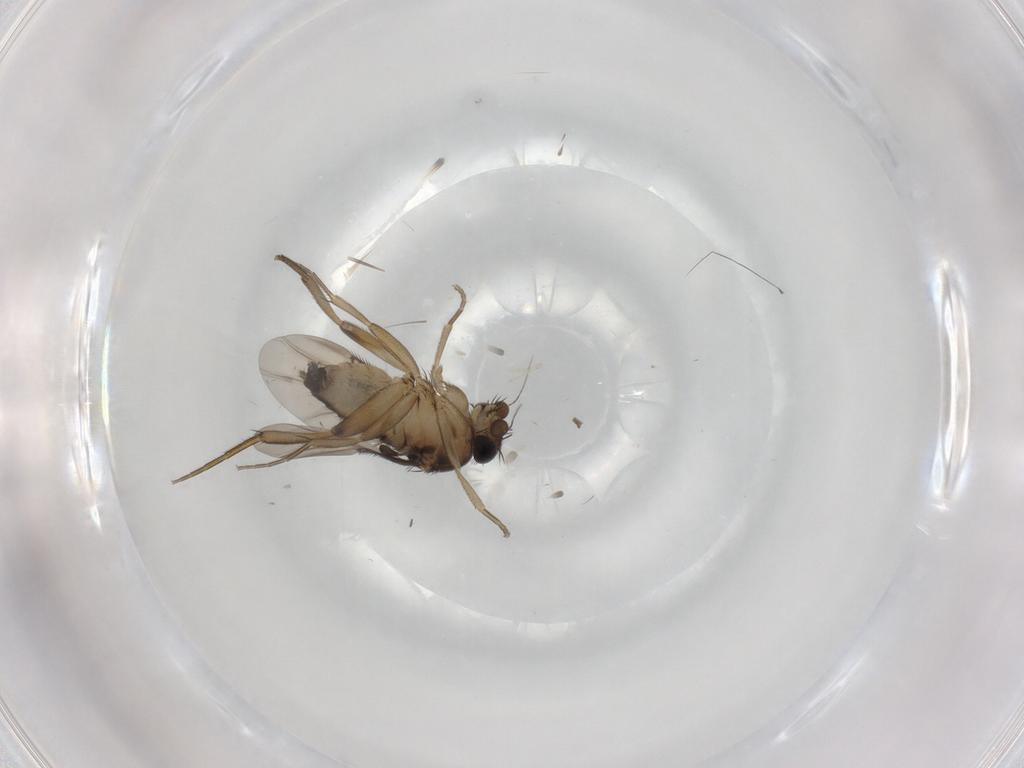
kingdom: Animalia
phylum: Arthropoda
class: Insecta
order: Diptera
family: Phoridae
